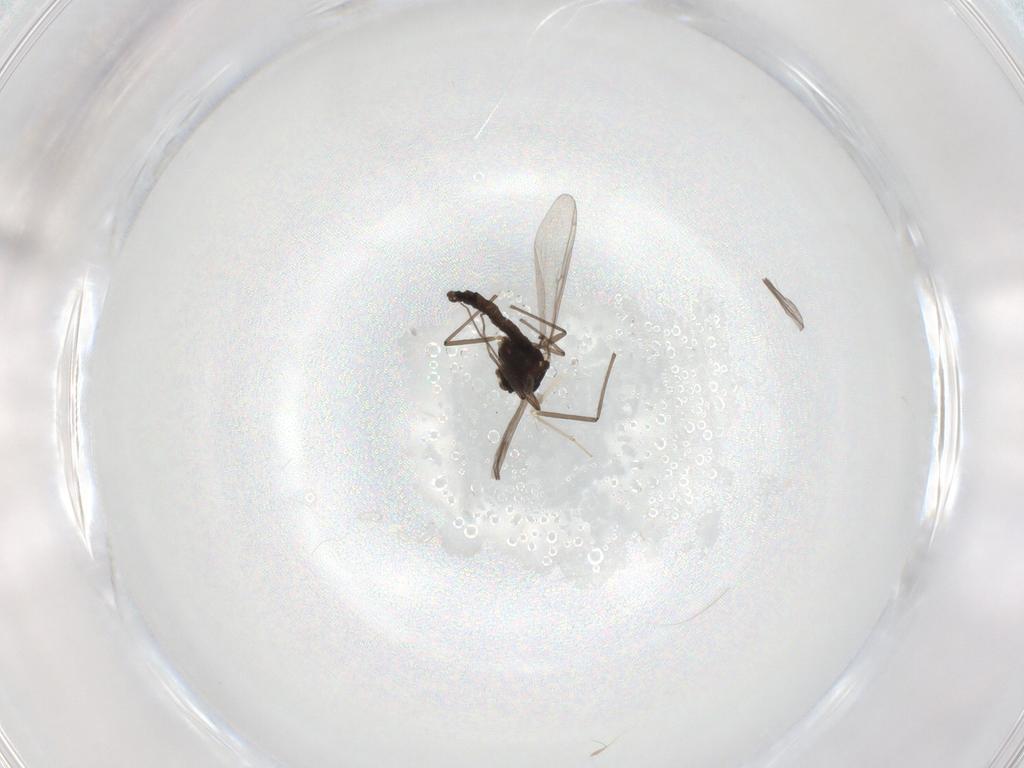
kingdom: Animalia
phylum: Arthropoda
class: Insecta
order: Diptera
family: Chironomidae
